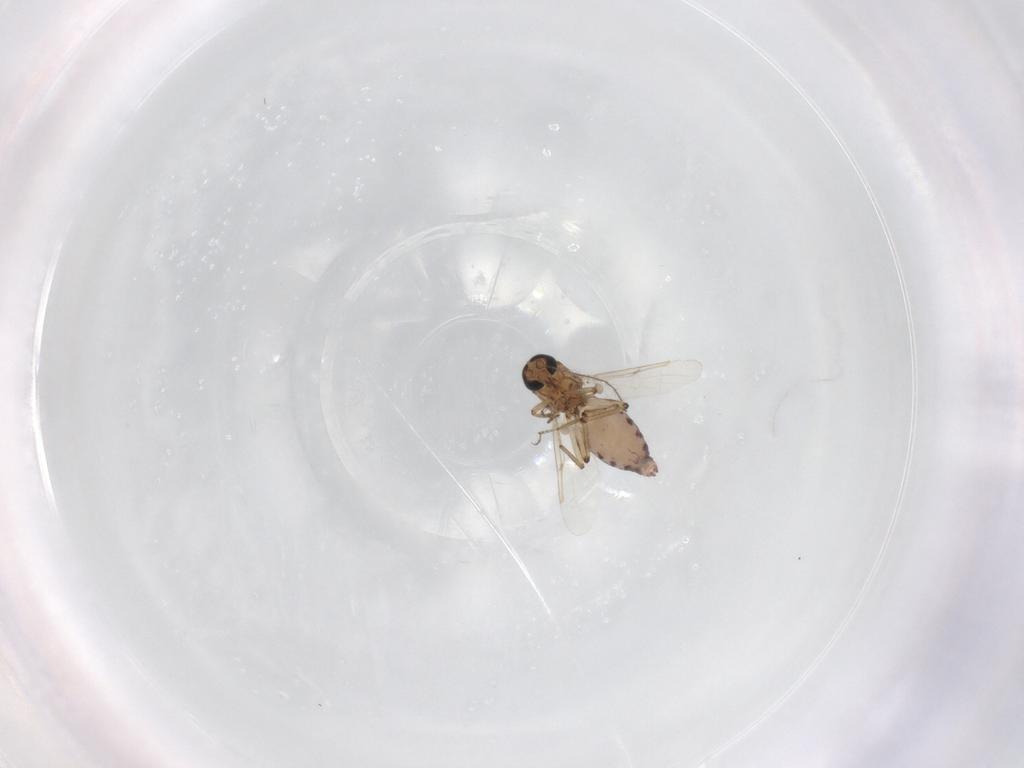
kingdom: Animalia
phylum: Arthropoda
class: Insecta
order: Diptera
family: Ceratopogonidae
